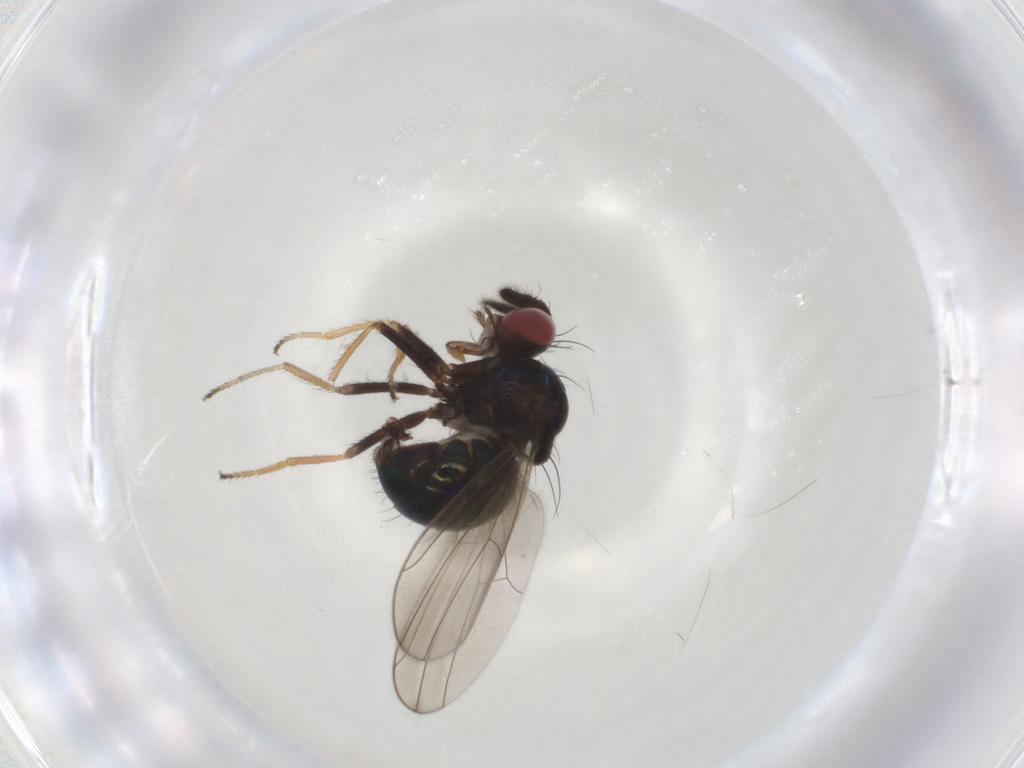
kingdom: Animalia
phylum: Arthropoda
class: Insecta
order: Diptera
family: Ephydridae
